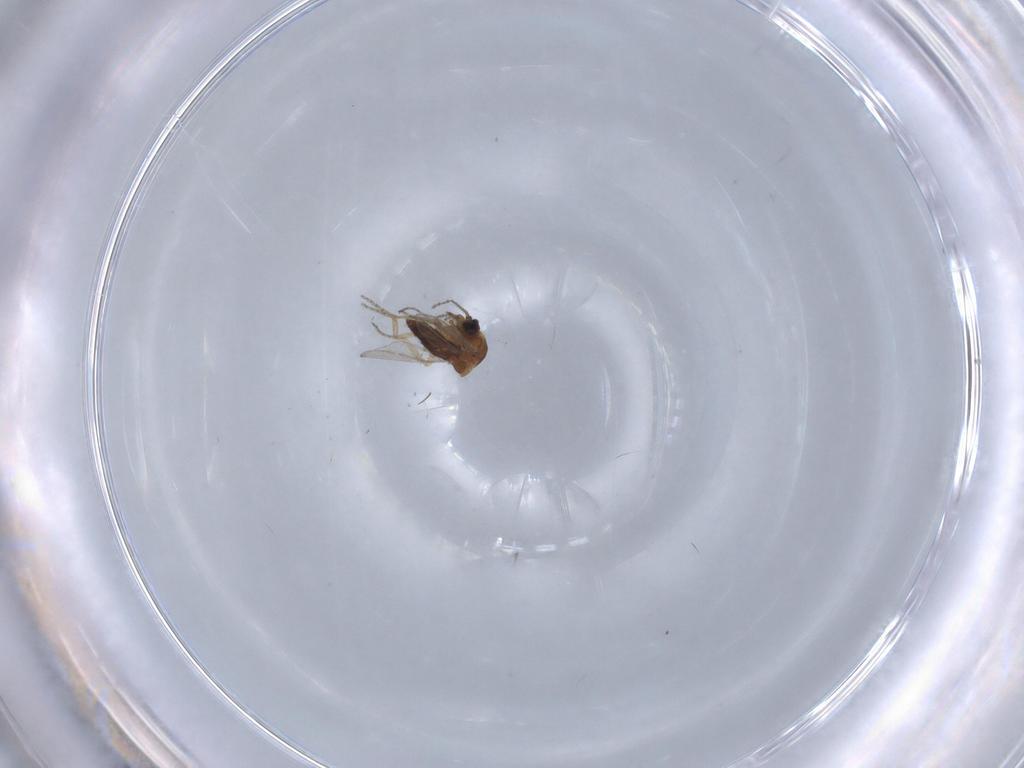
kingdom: Animalia
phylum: Arthropoda
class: Insecta
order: Diptera
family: Ceratopogonidae
